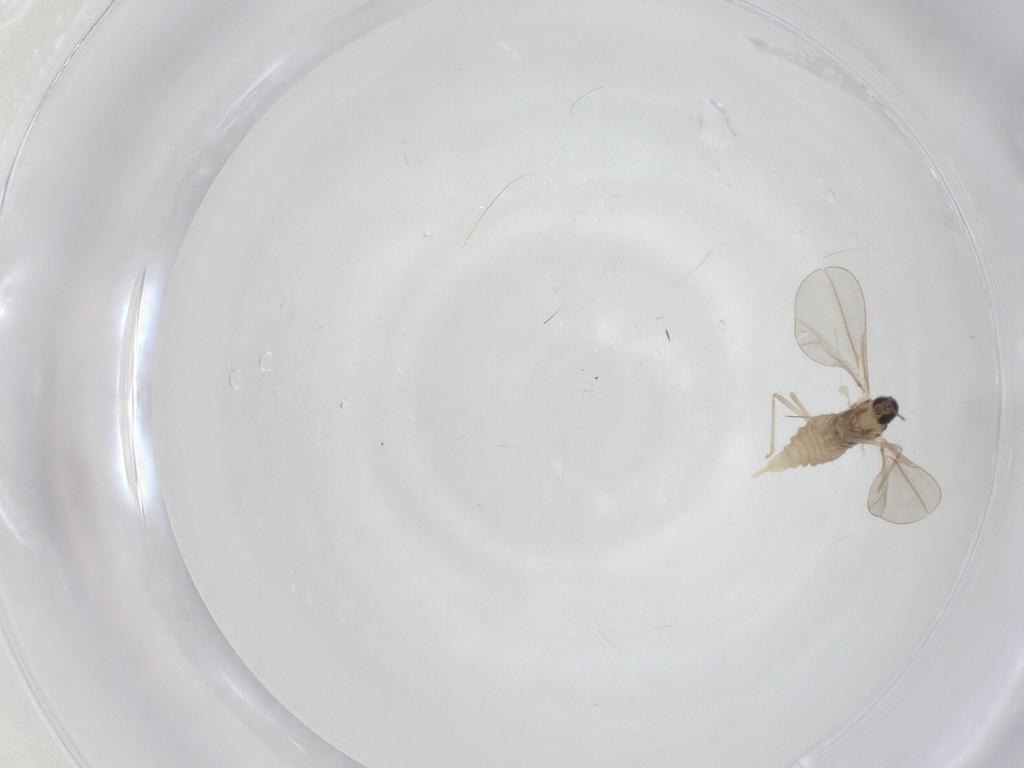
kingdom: Animalia
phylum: Arthropoda
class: Insecta
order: Diptera
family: Cecidomyiidae
